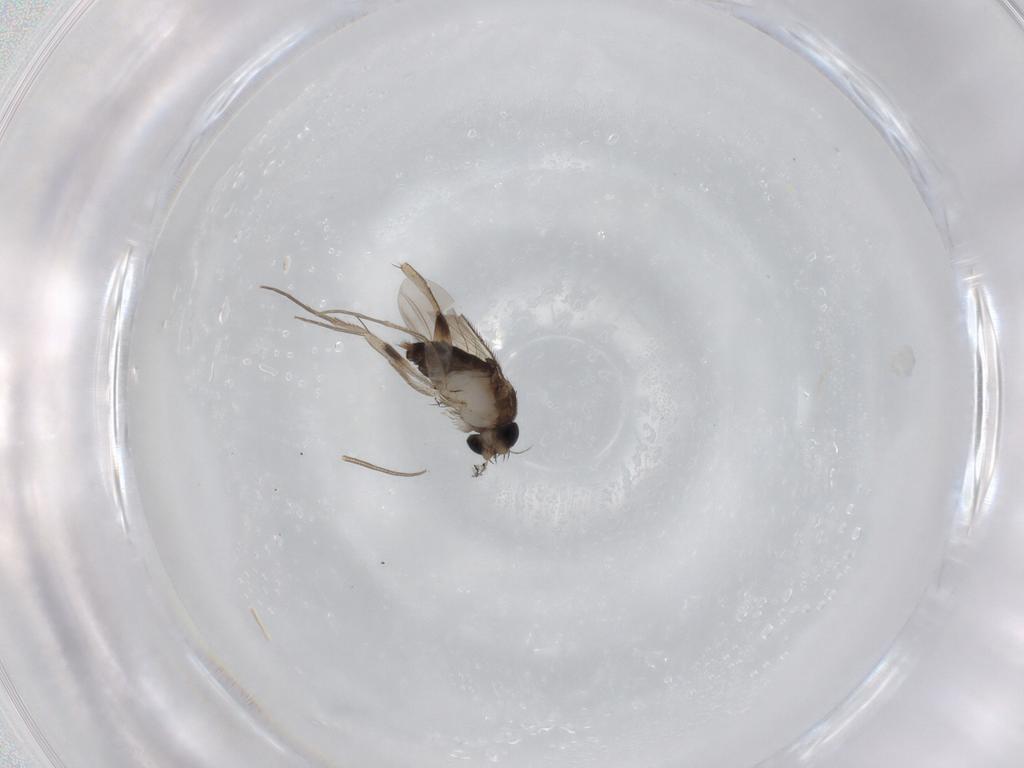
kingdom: Animalia
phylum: Arthropoda
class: Insecta
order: Diptera
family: Phoridae
